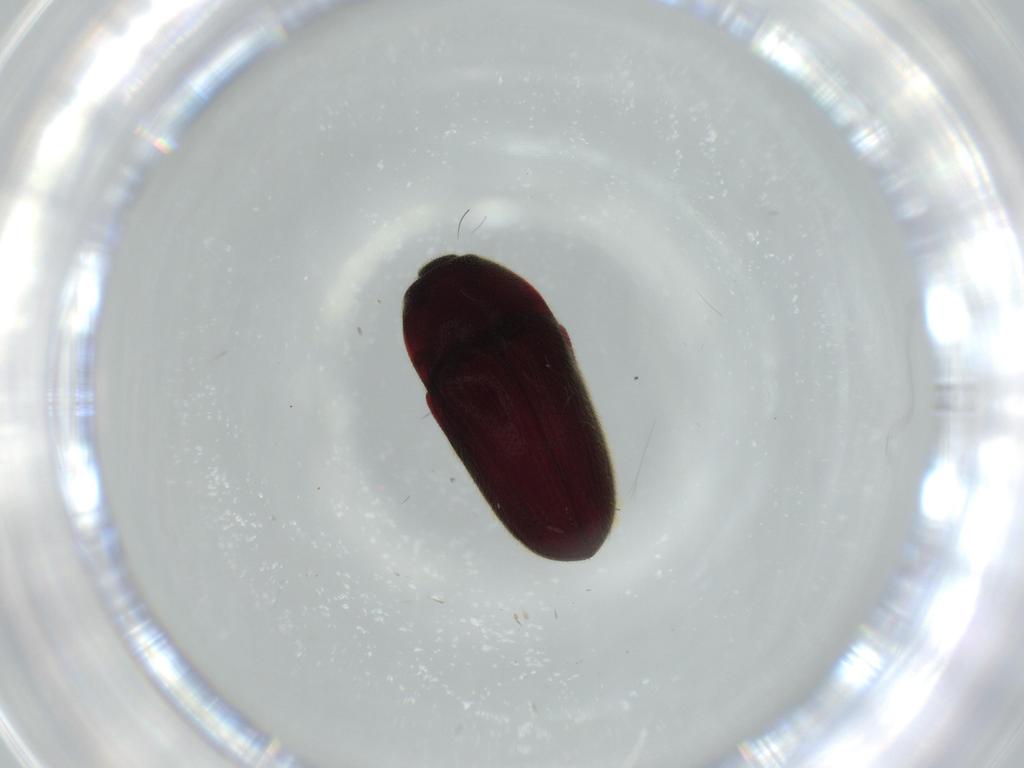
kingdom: Animalia
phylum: Arthropoda
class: Insecta
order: Coleoptera
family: Throscidae
